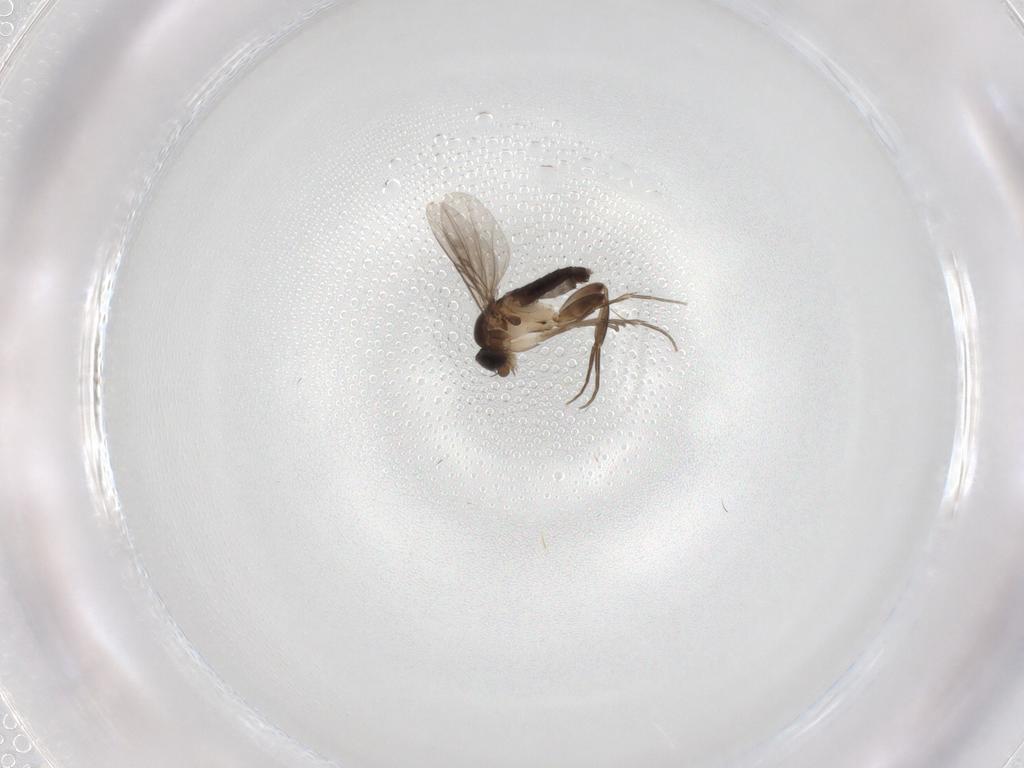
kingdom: Animalia
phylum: Arthropoda
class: Insecta
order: Diptera
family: Phoridae
